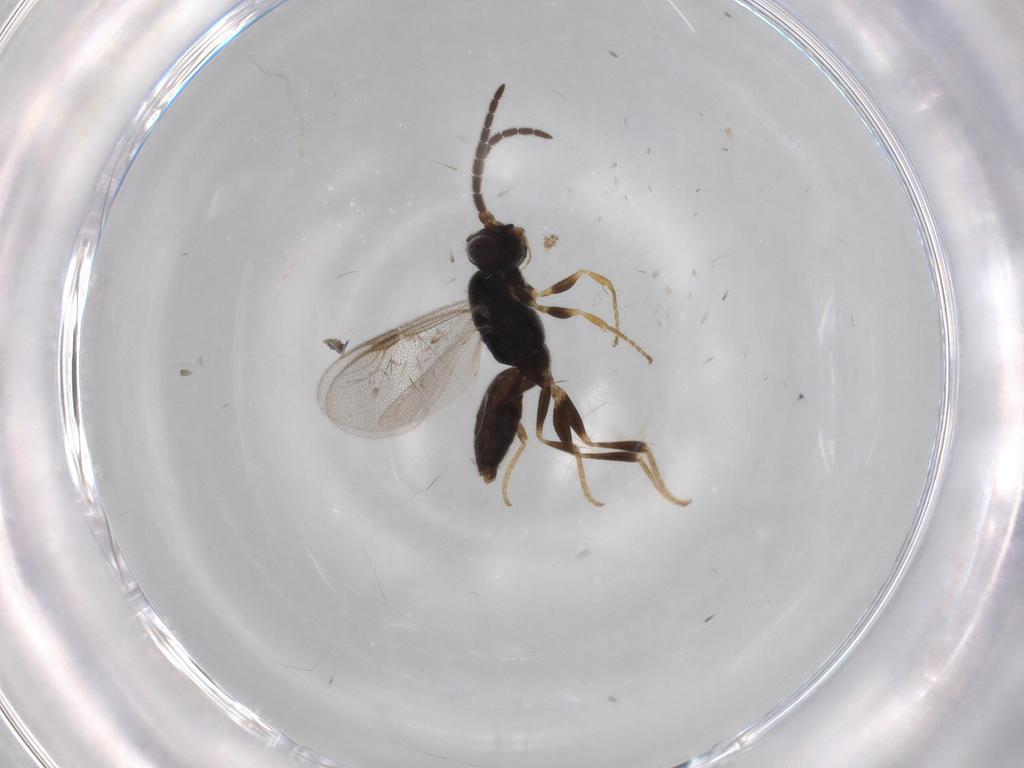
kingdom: Animalia
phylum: Arthropoda
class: Insecta
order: Hymenoptera
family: Dryinidae
